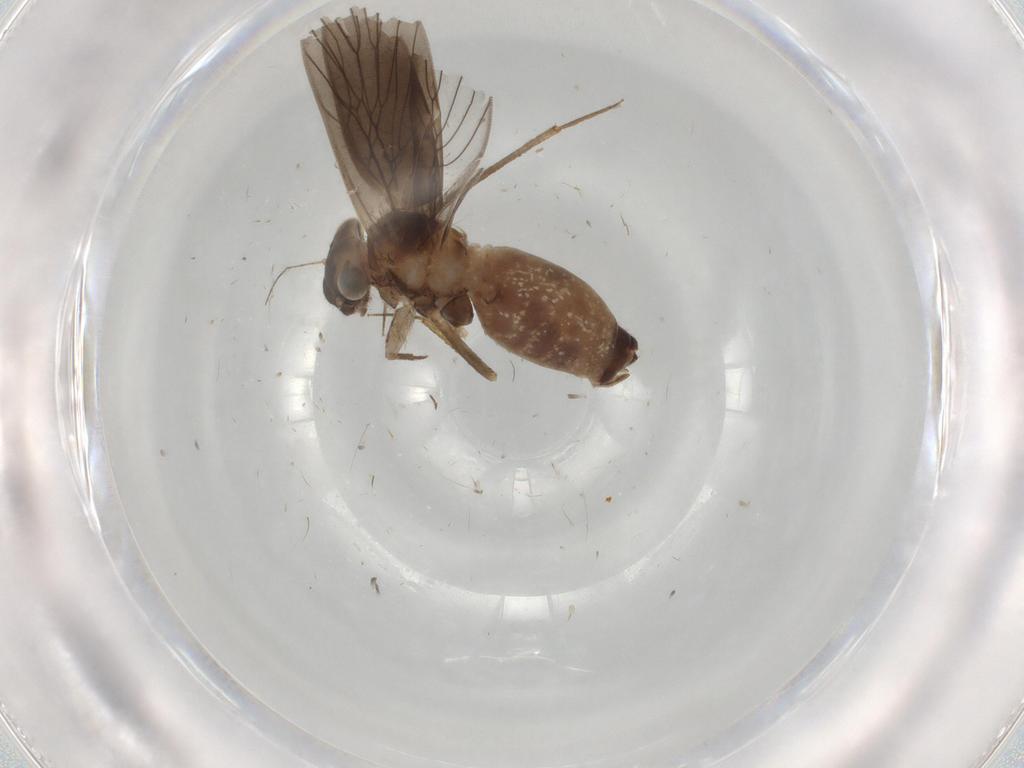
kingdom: Animalia
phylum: Arthropoda
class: Insecta
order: Psocodea
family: Lepidopsocidae
